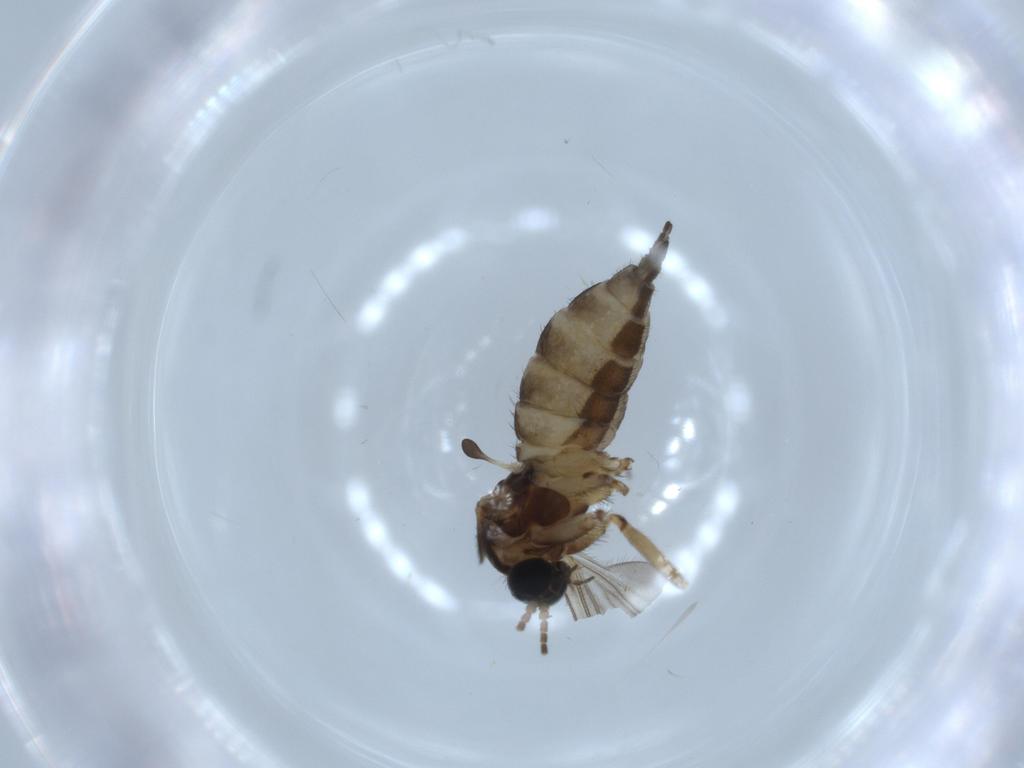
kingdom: Animalia
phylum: Arthropoda
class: Insecta
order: Diptera
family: Sciaridae
